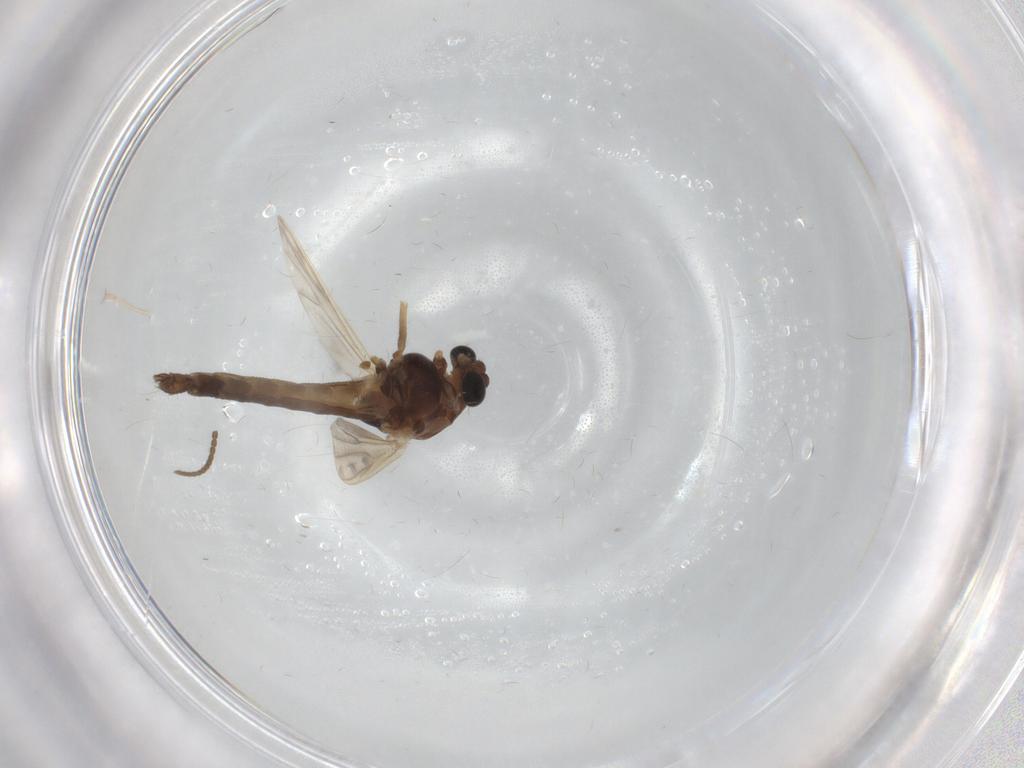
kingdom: Animalia
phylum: Arthropoda
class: Insecta
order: Diptera
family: Chironomidae
